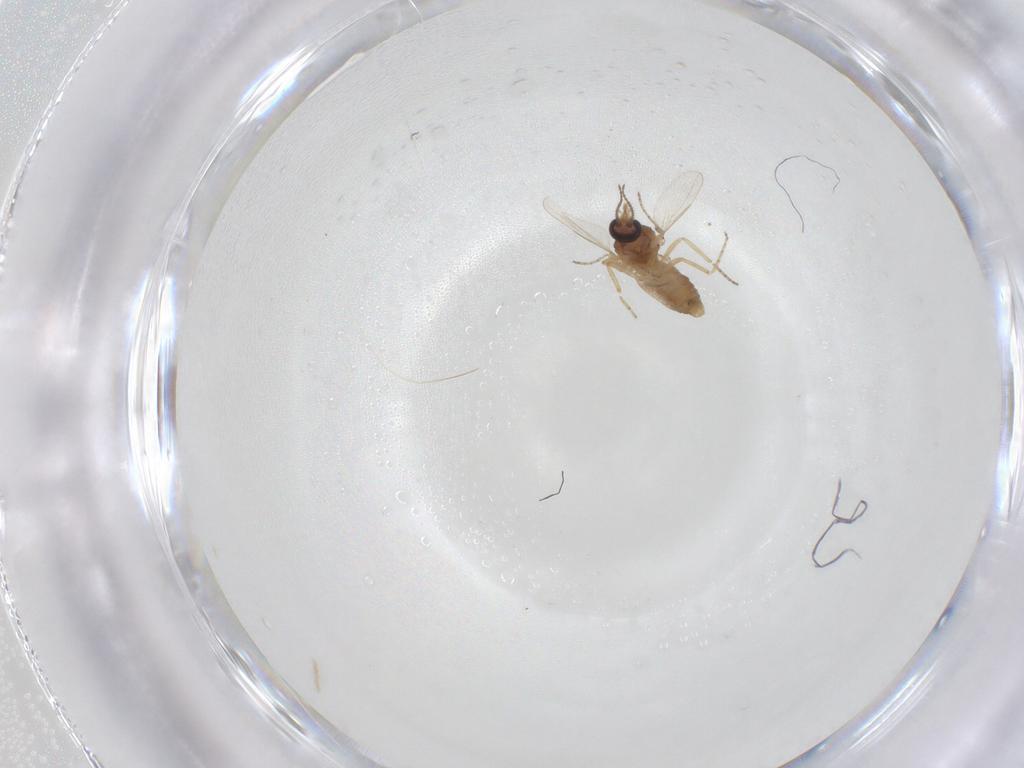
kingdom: Animalia
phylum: Arthropoda
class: Insecta
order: Diptera
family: Ceratopogonidae
